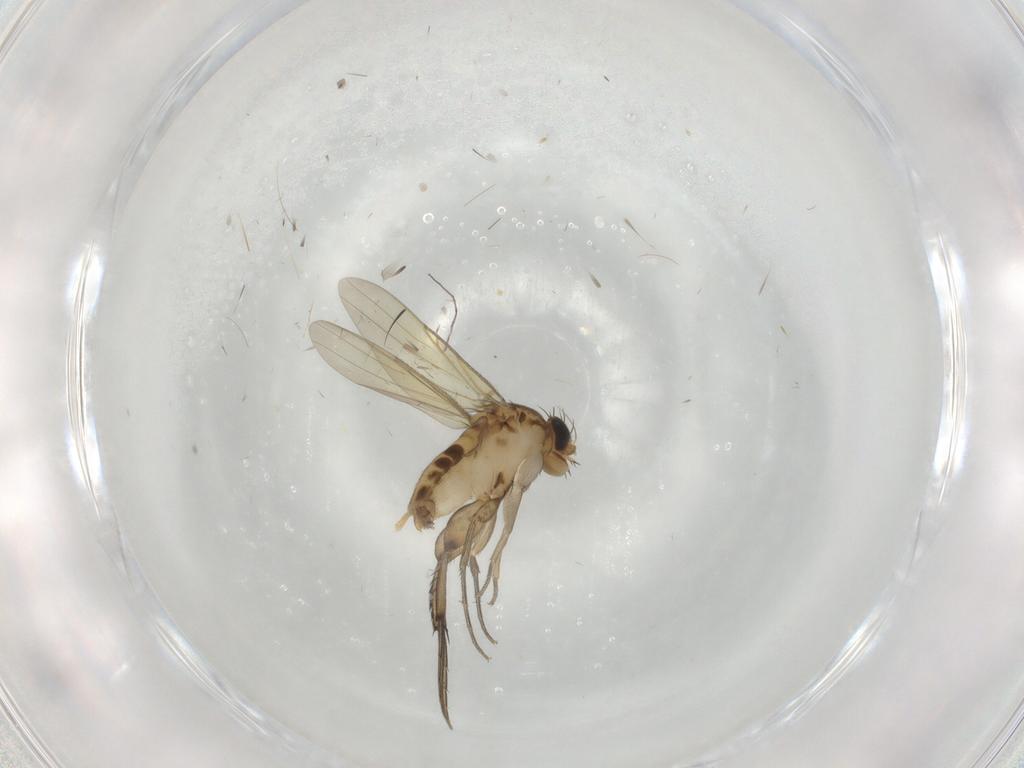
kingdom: Animalia
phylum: Arthropoda
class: Insecta
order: Diptera
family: Phoridae
